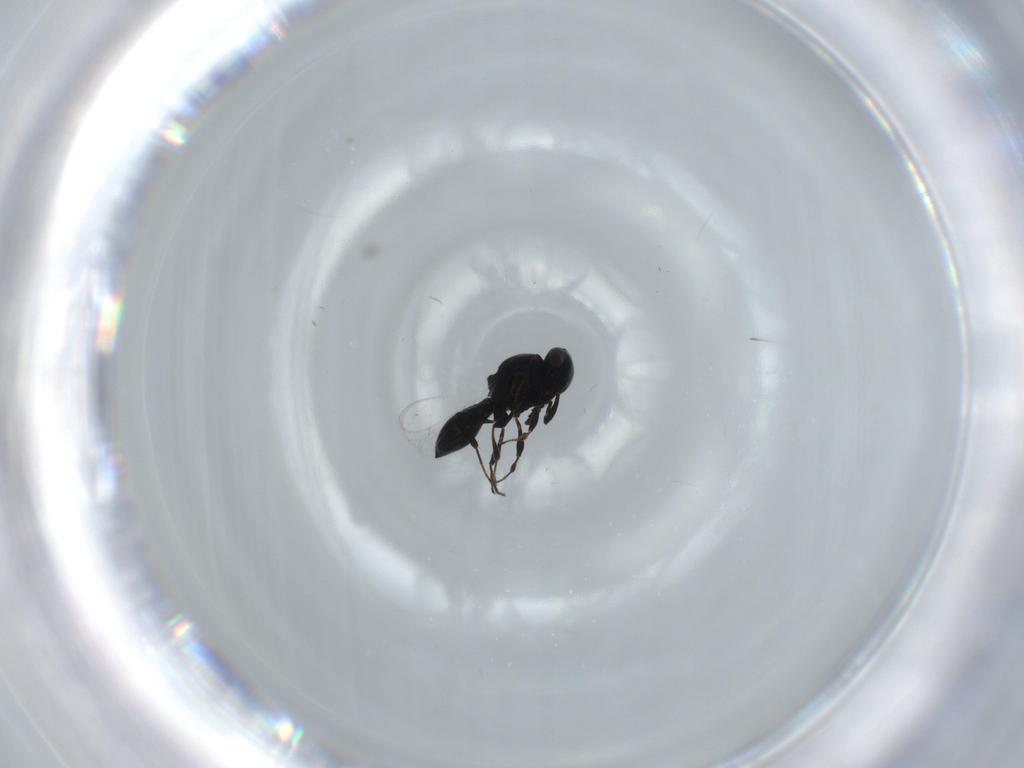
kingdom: Animalia
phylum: Arthropoda
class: Insecta
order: Hymenoptera
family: Platygastridae
